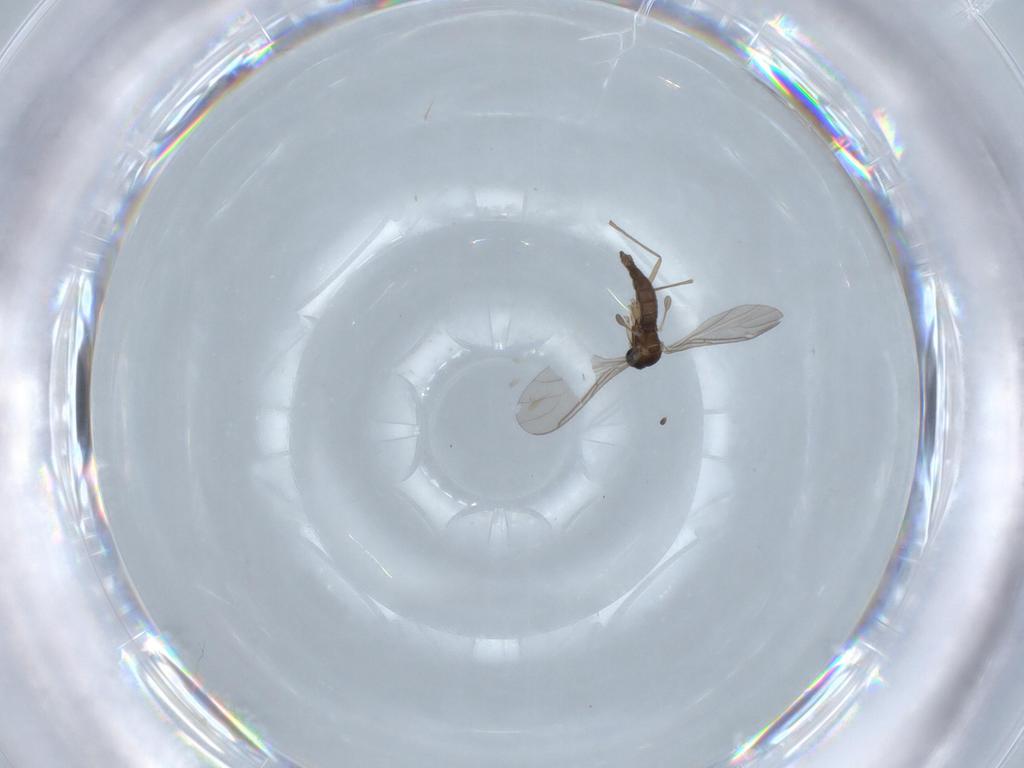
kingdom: Animalia
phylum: Arthropoda
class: Insecta
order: Diptera
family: Sciaridae
